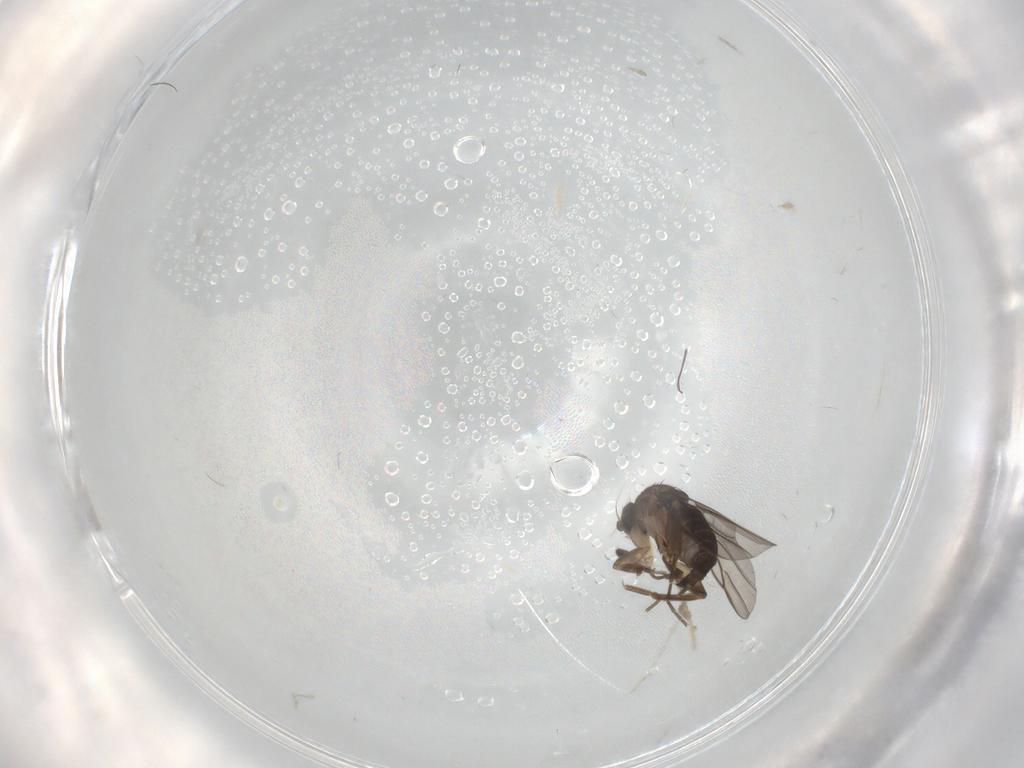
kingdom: Animalia
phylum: Arthropoda
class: Insecta
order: Diptera
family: Phoridae
